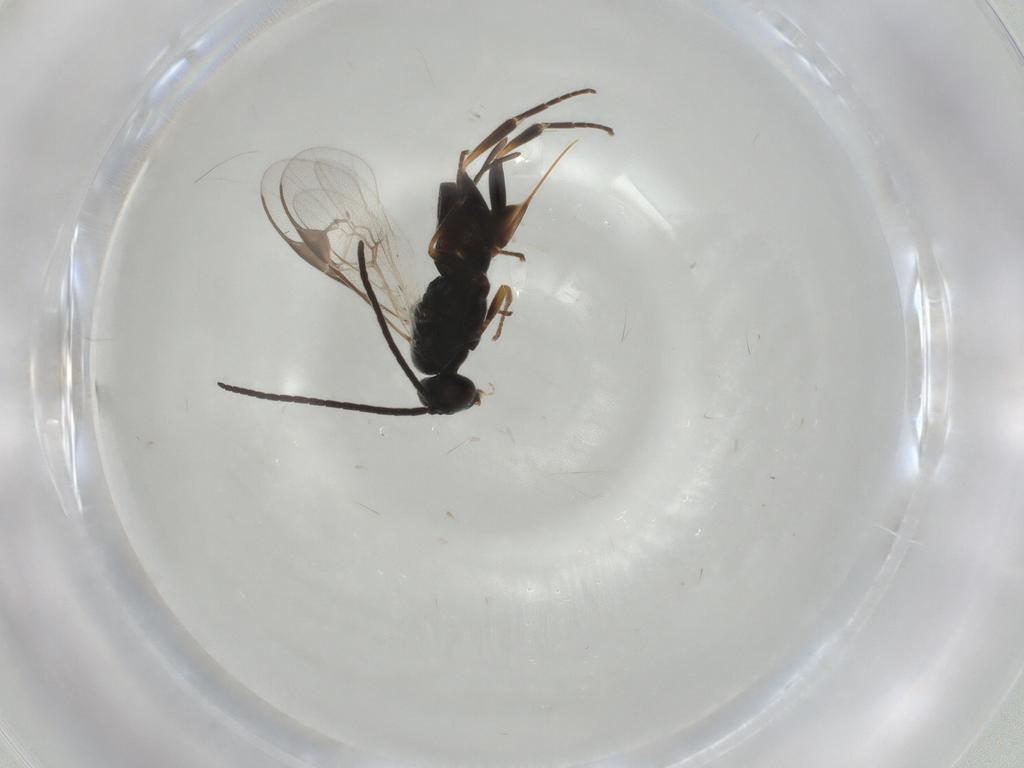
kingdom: Animalia
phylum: Arthropoda
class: Insecta
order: Hymenoptera
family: Braconidae
